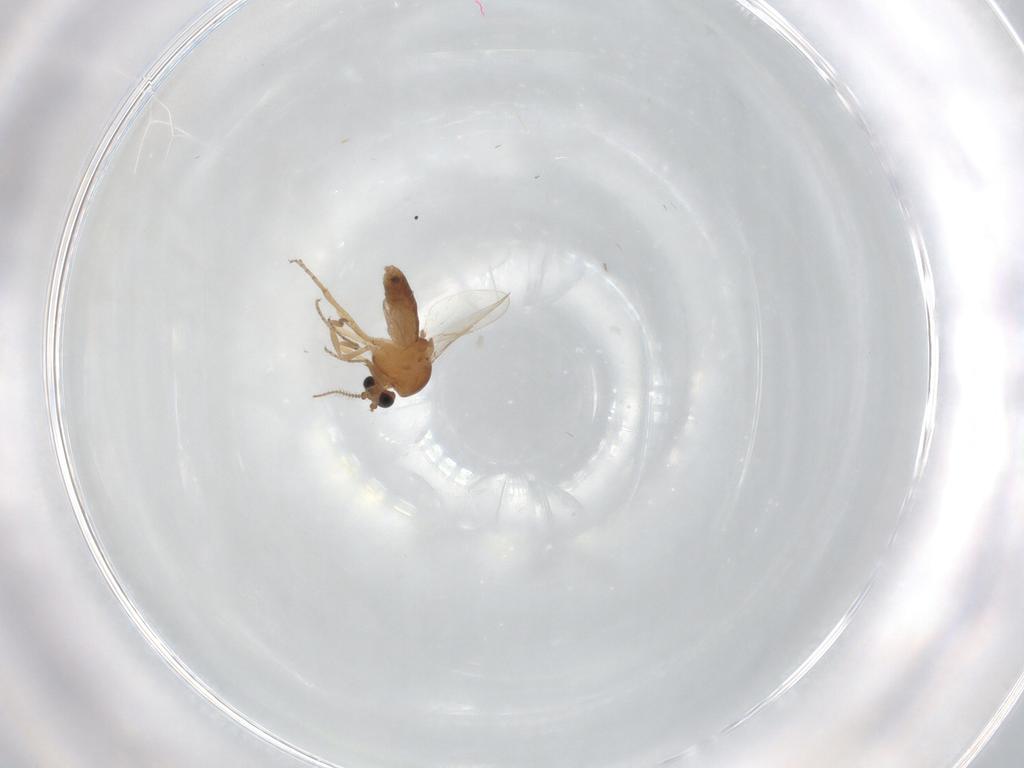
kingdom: Animalia
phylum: Arthropoda
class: Insecta
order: Diptera
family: Ceratopogonidae
